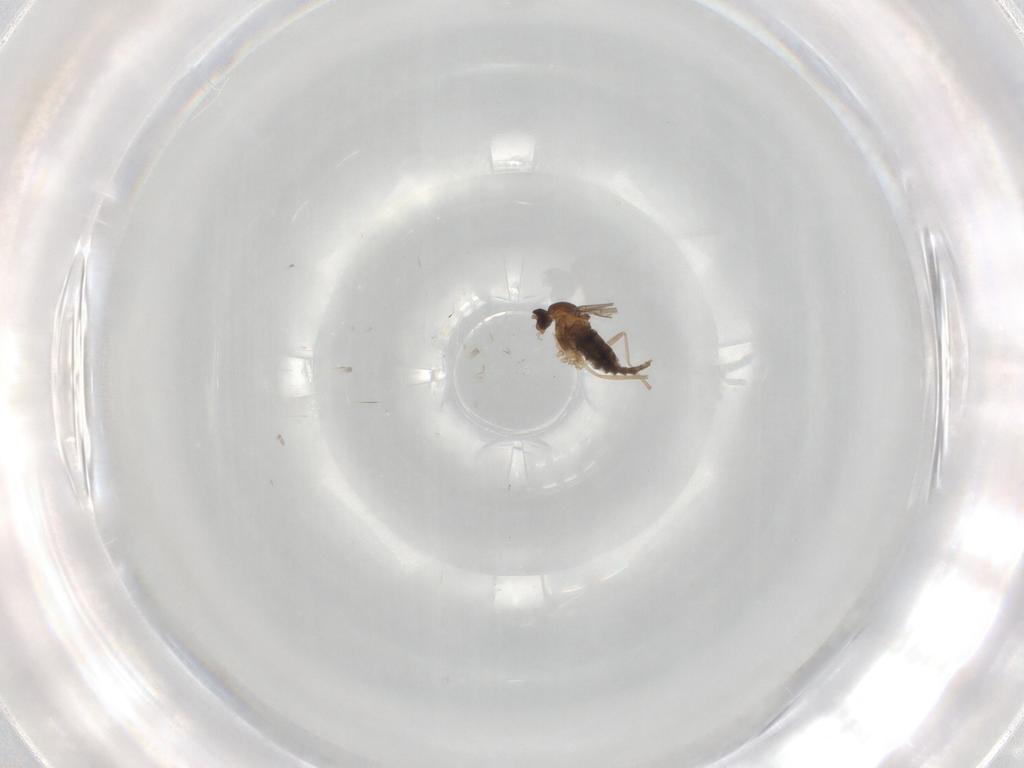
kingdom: Animalia
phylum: Arthropoda
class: Insecta
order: Diptera
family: Cecidomyiidae
